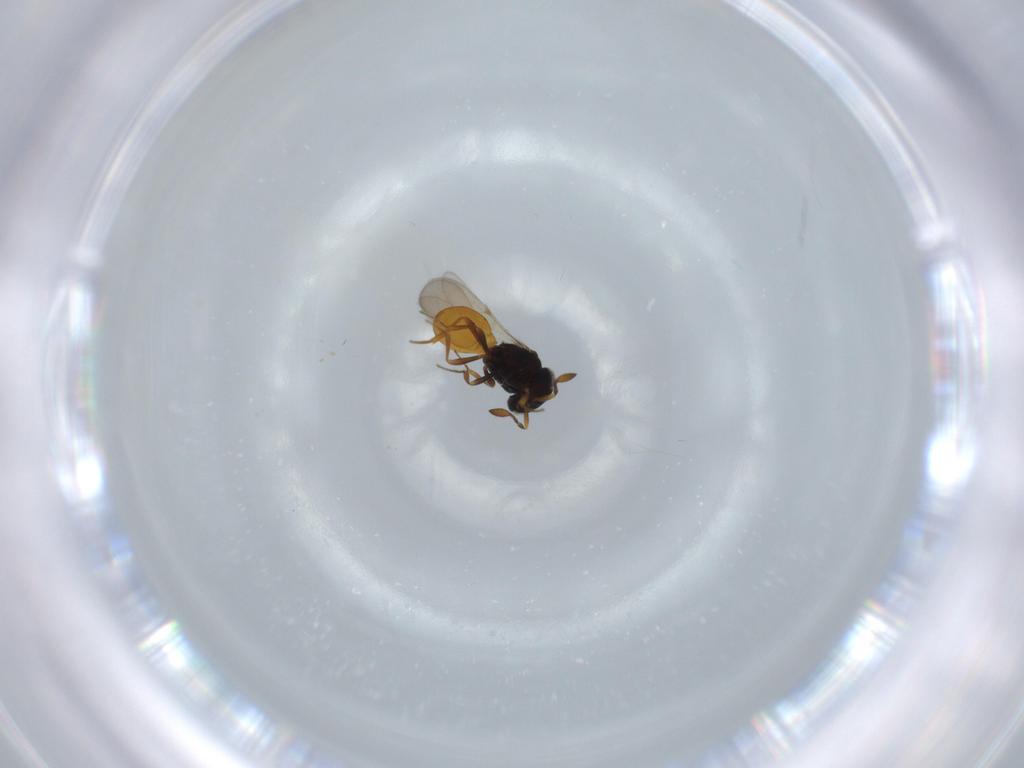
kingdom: Animalia
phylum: Arthropoda
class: Insecta
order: Hymenoptera
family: Scelionidae
